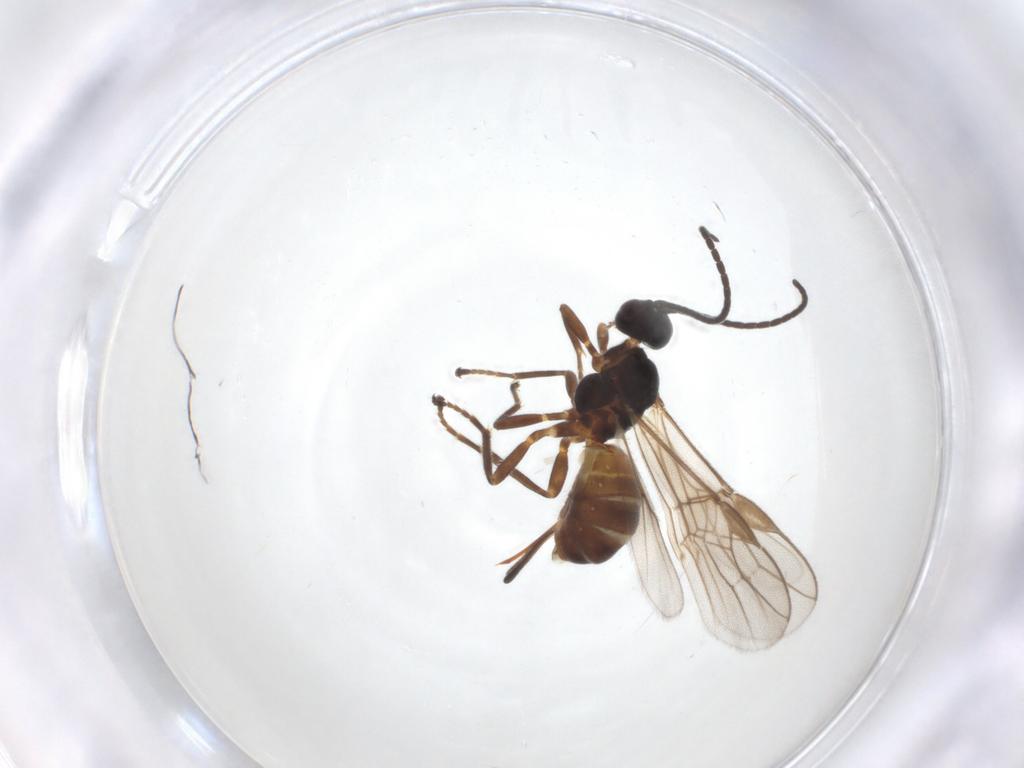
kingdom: Animalia
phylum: Arthropoda
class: Insecta
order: Hymenoptera
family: Braconidae
